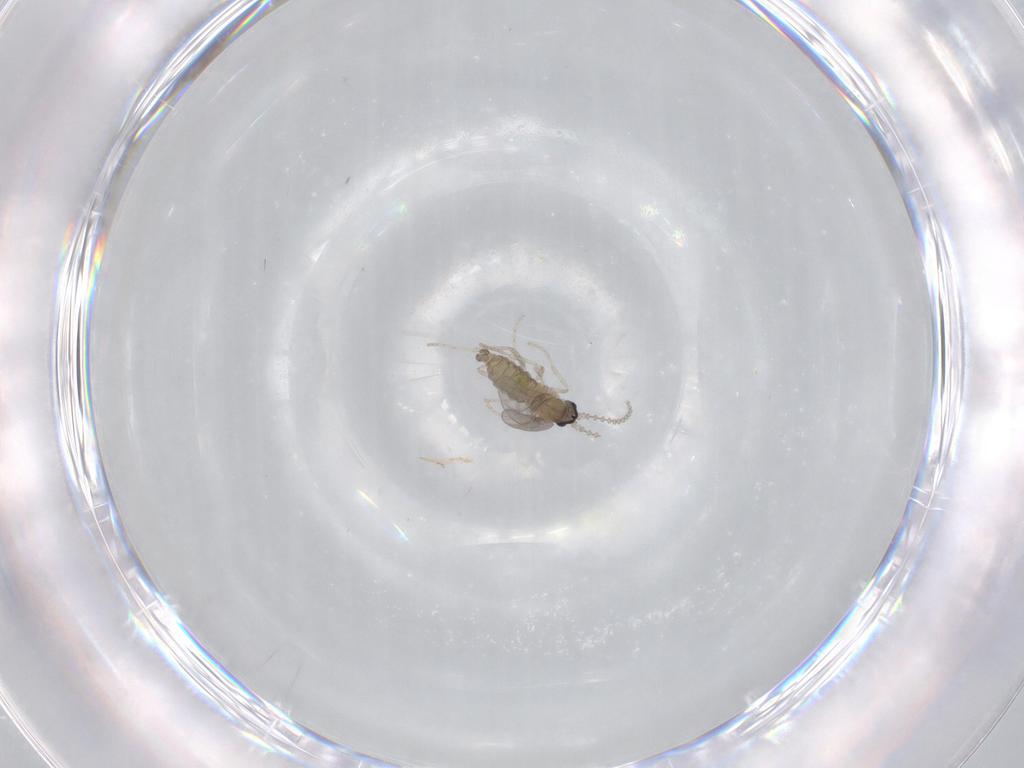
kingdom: Animalia
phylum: Arthropoda
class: Insecta
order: Diptera
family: Cecidomyiidae
